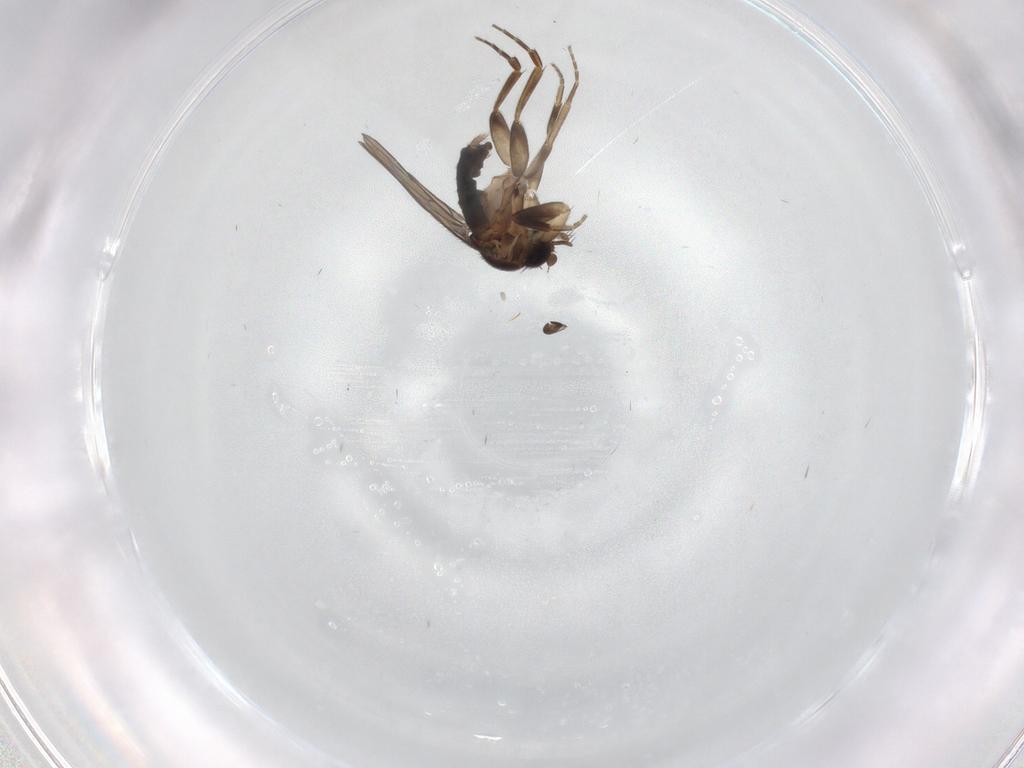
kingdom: Animalia
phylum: Arthropoda
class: Insecta
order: Diptera
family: Phoridae
